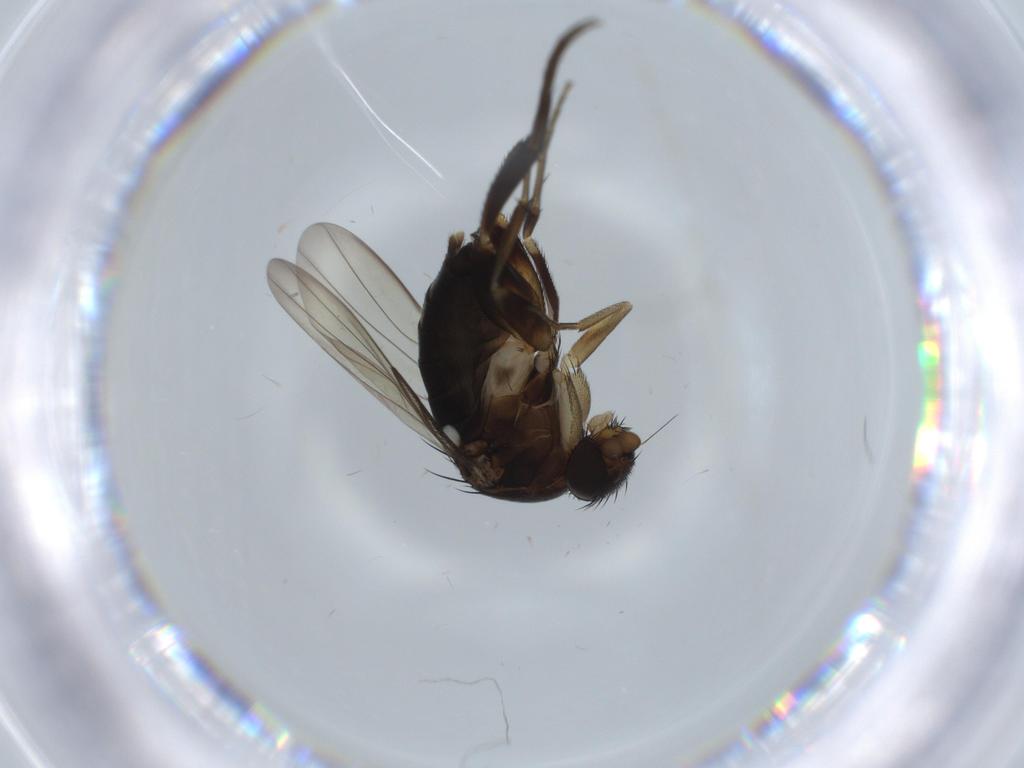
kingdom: Animalia
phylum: Arthropoda
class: Insecta
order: Diptera
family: Phoridae
